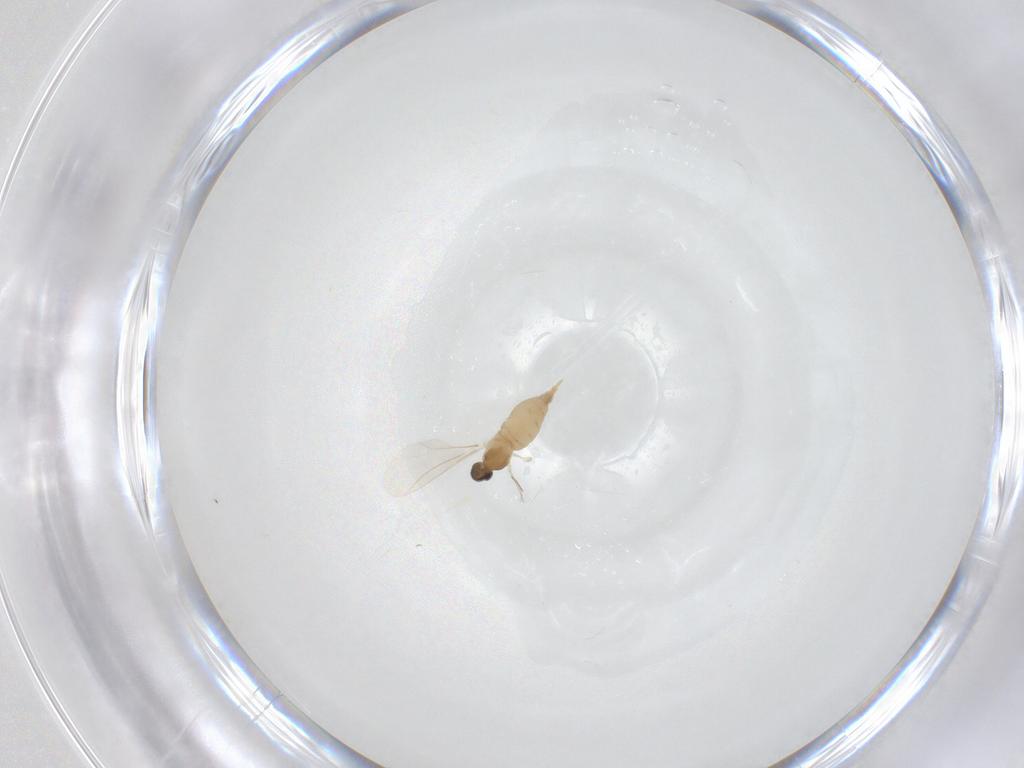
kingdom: Animalia
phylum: Arthropoda
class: Insecta
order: Diptera
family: Cecidomyiidae
